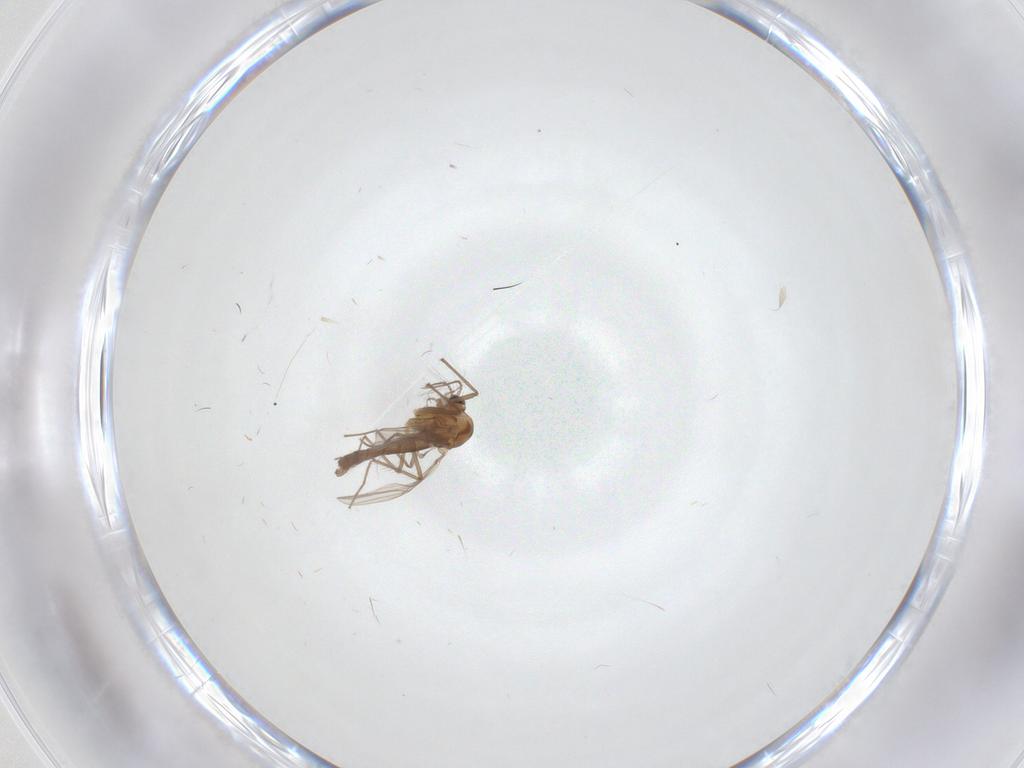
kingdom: Animalia
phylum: Arthropoda
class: Insecta
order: Diptera
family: Chironomidae
